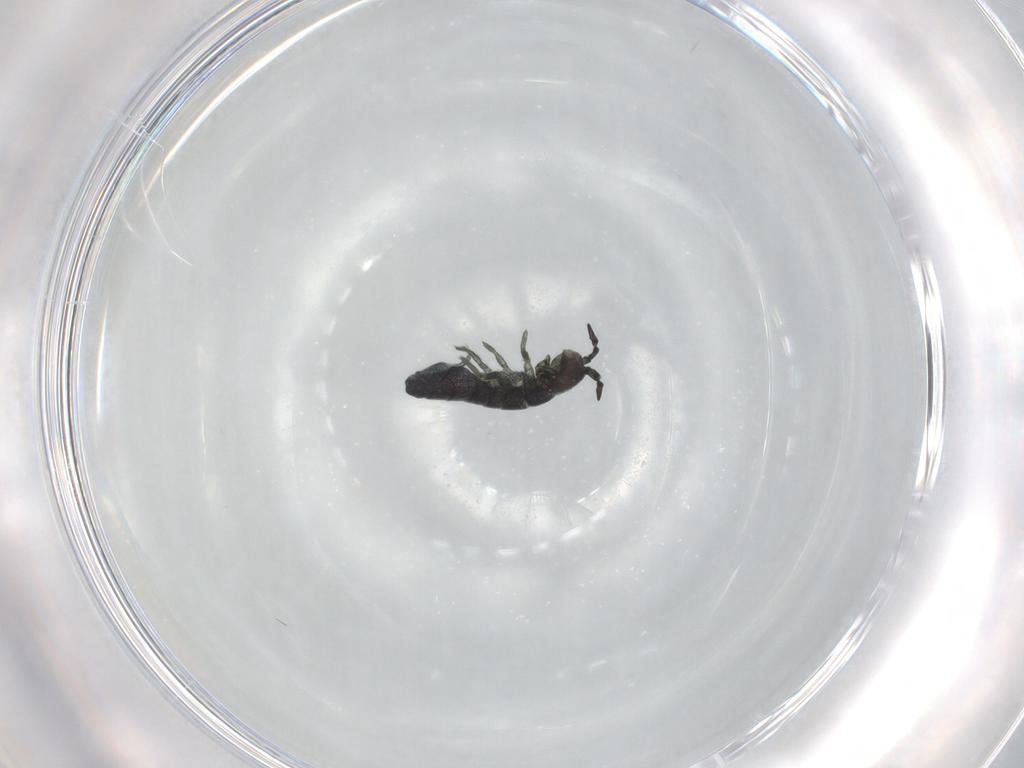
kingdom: Animalia
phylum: Arthropoda
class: Collembola
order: Entomobryomorpha
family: Isotomidae
